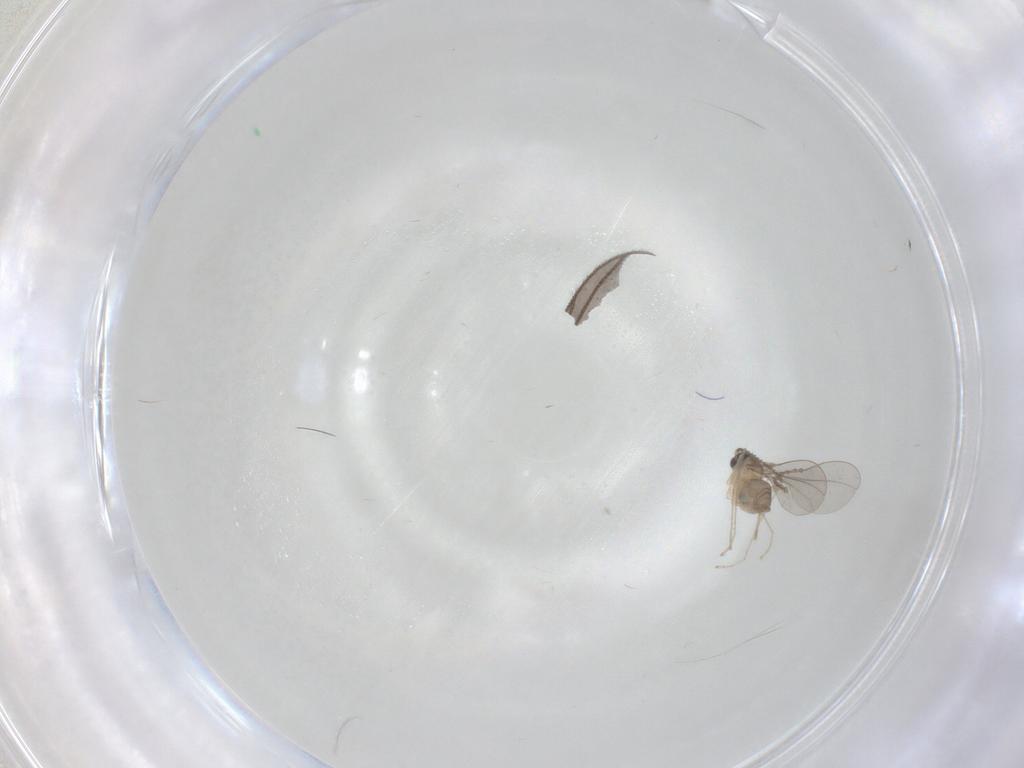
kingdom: Animalia
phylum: Arthropoda
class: Insecta
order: Diptera
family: Cecidomyiidae
